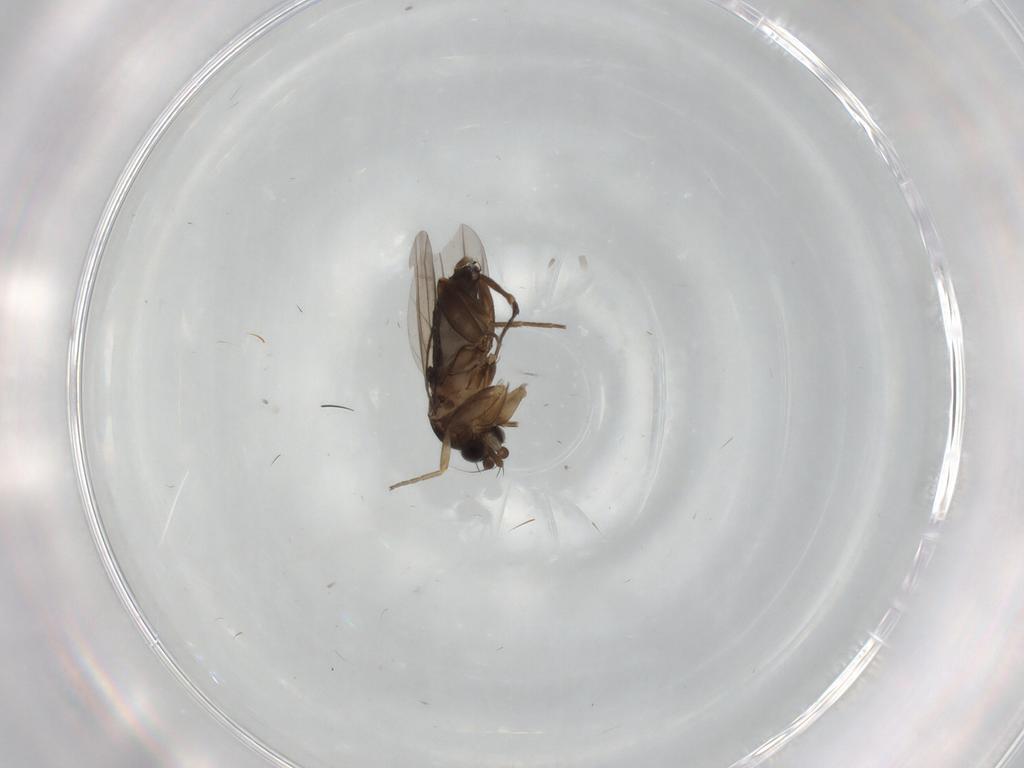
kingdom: Animalia
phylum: Arthropoda
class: Insecta
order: Diptera
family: Phoridae
